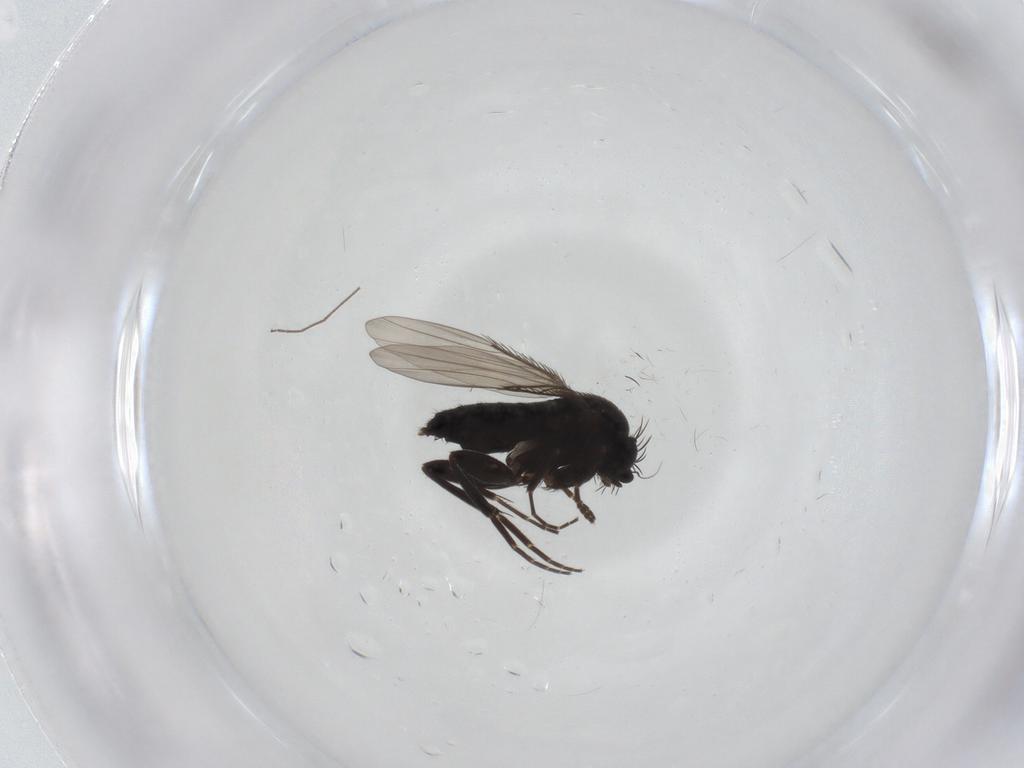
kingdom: Animalia
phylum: Arthropoda
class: Insecta
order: Diptera
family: Phoridae
